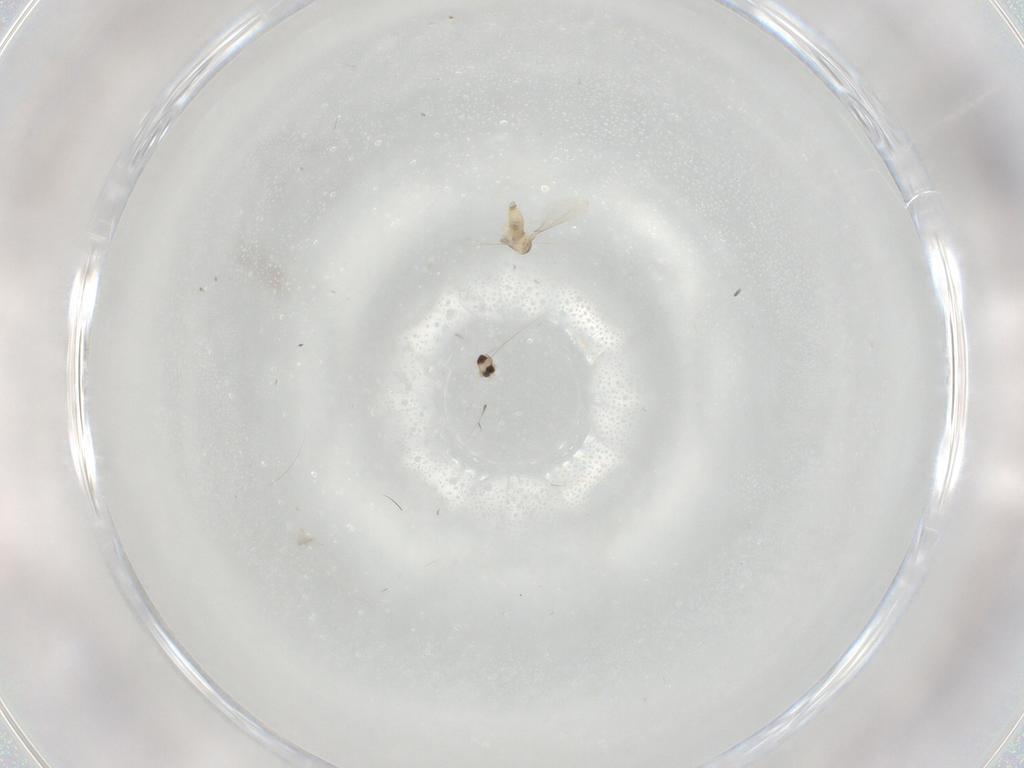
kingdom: Animalia
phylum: Arthropoda
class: Insecta
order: Diptera
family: Cecidomyiidae
